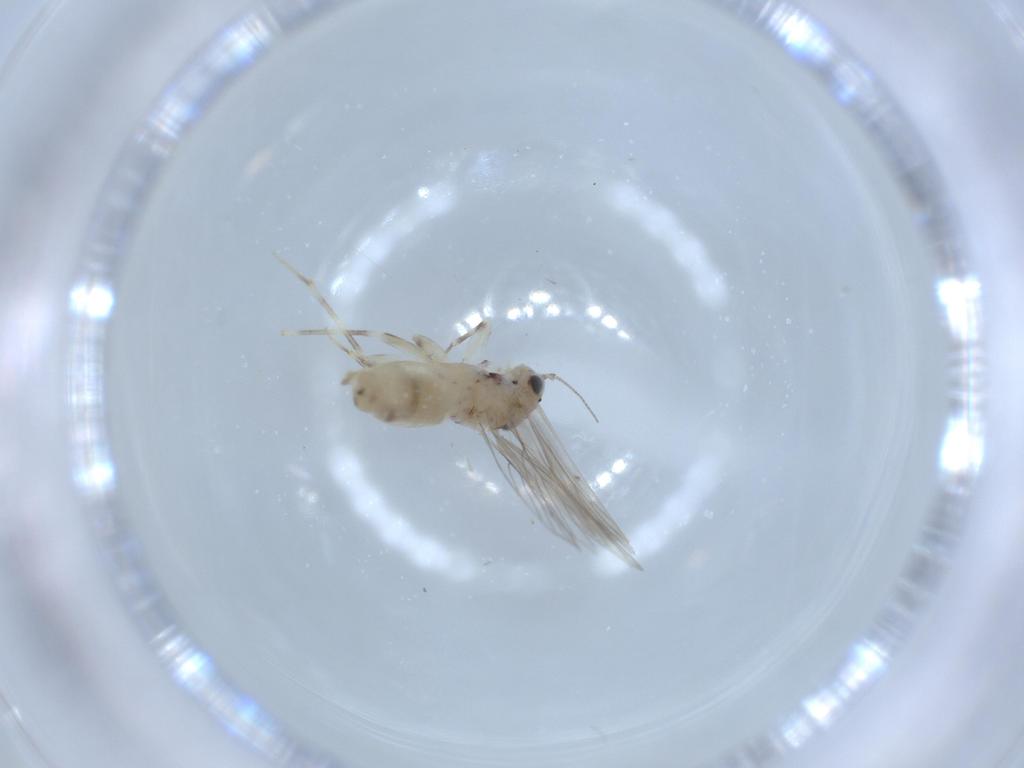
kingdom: Animalia
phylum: Arthropoda
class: Insecta
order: Psocodea
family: Lepidopsocidae
